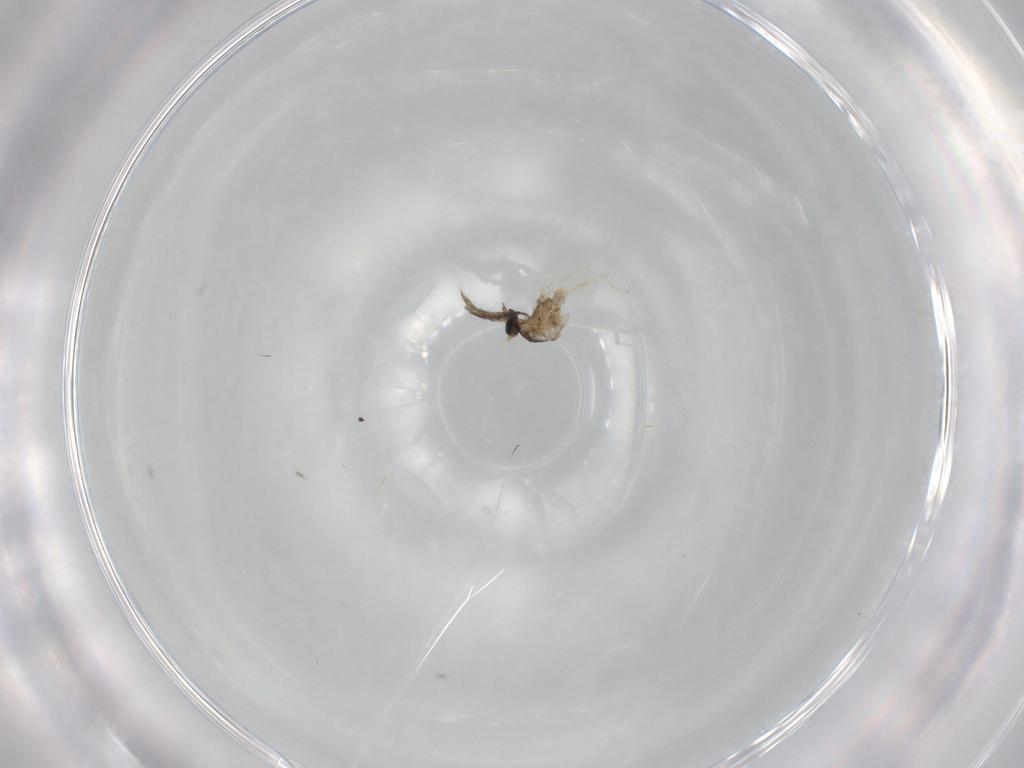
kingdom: Animalia
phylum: Arthropoda
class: Insecta
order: Diptera
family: Cecidomyiidae
